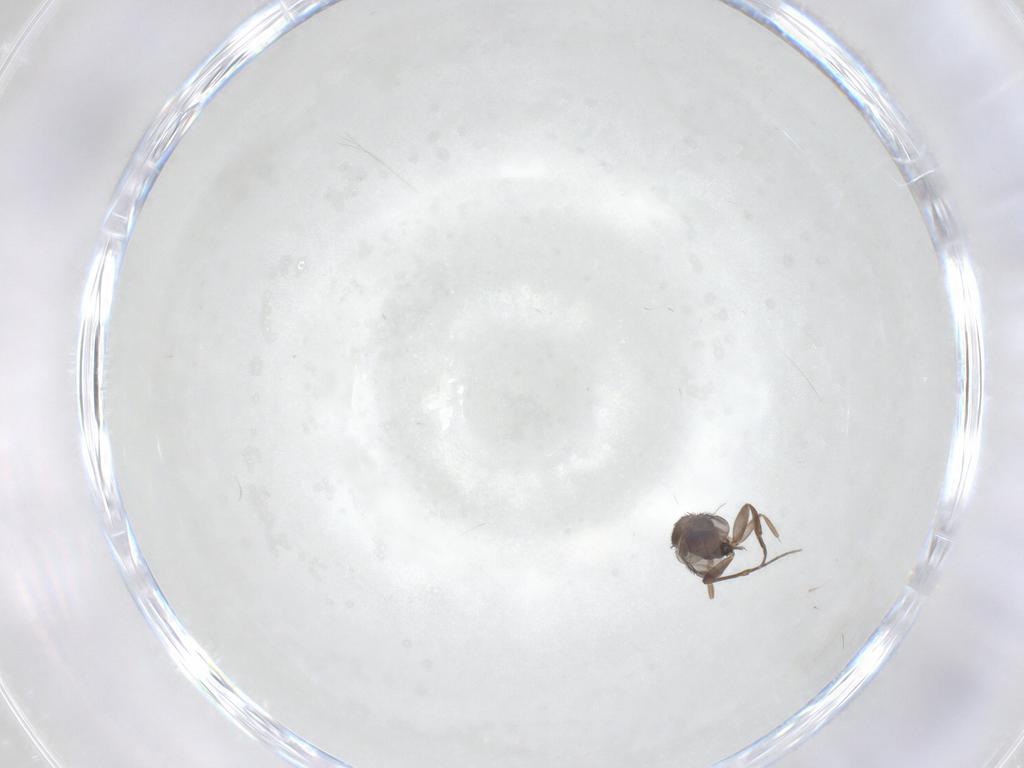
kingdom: Animalia
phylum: Arthropoda
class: Insecta
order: Diptera
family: Phoridae
